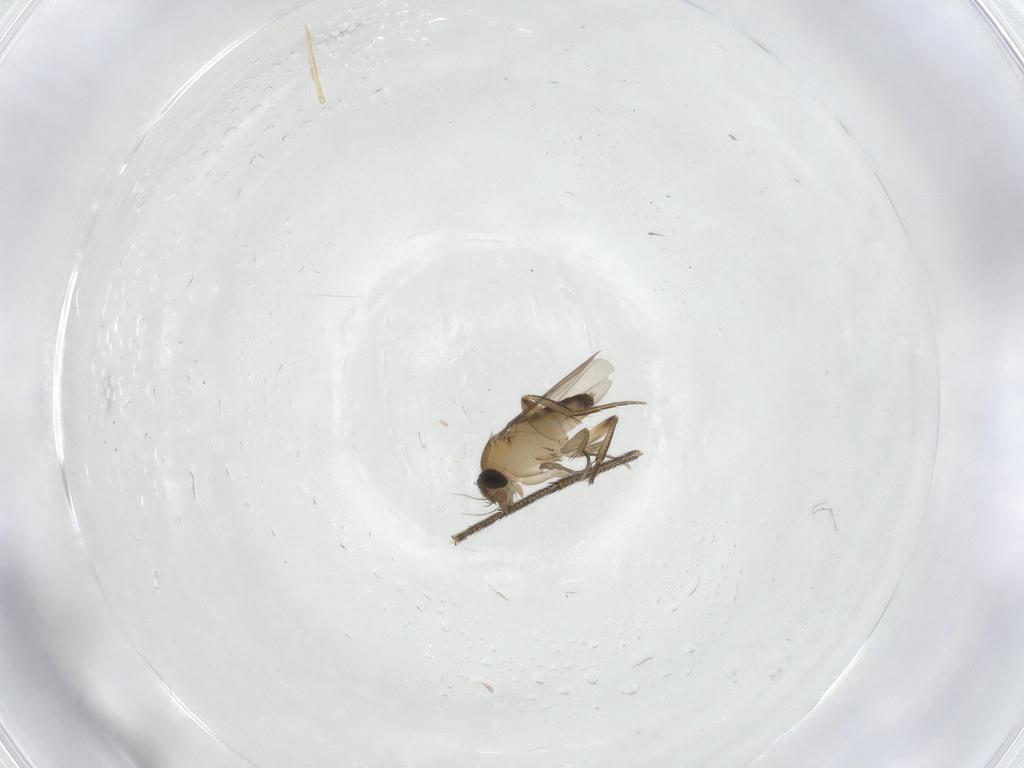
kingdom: Animalia
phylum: Arthropoda
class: Insecta
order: Diptera
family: Phoridae
